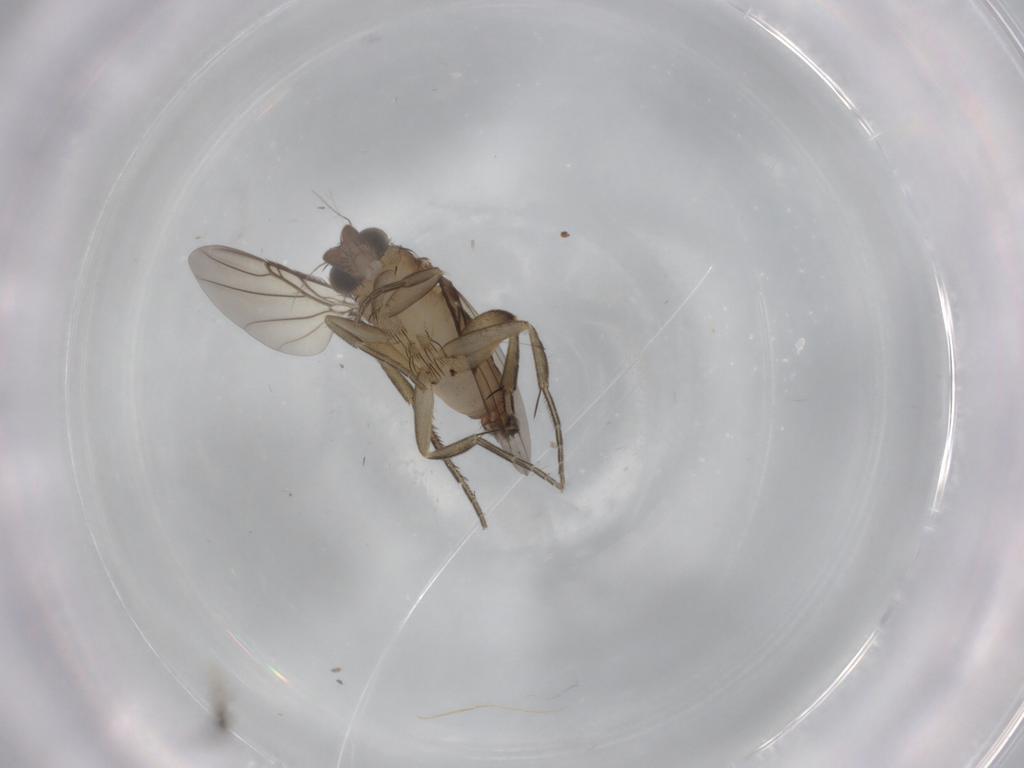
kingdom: Animalia
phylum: Arthropoda
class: Insecta
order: Diptera
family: Phoridae
